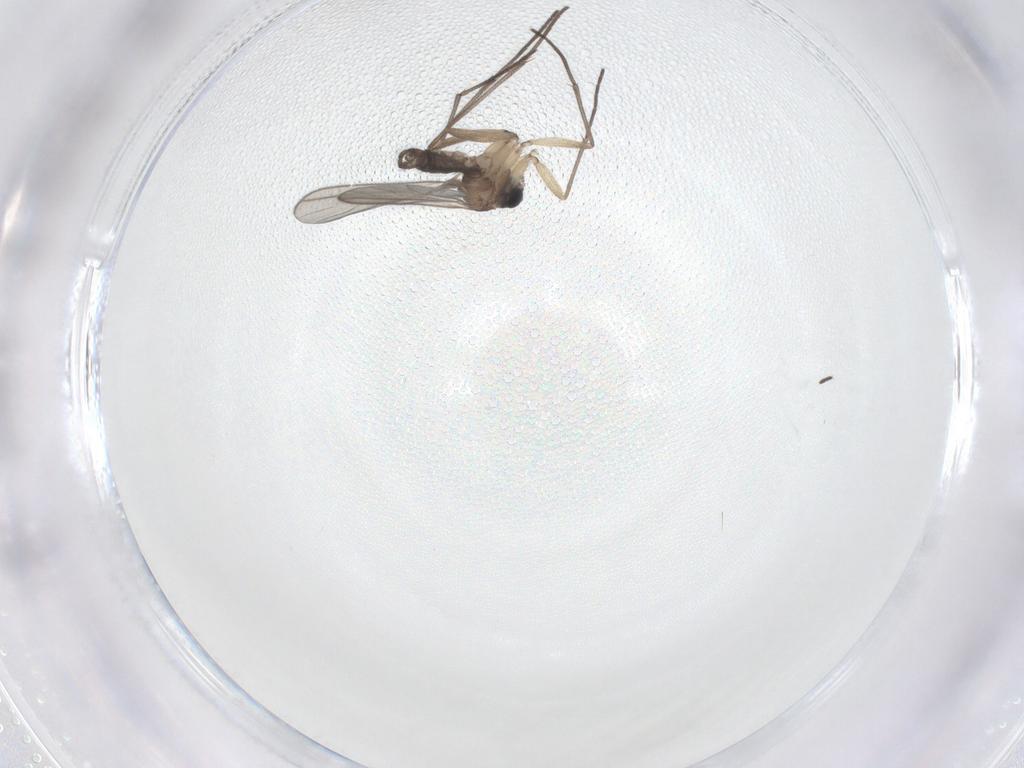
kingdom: Animalia
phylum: Arthropoda
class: Insecta
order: Diptera
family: Sciaridae
